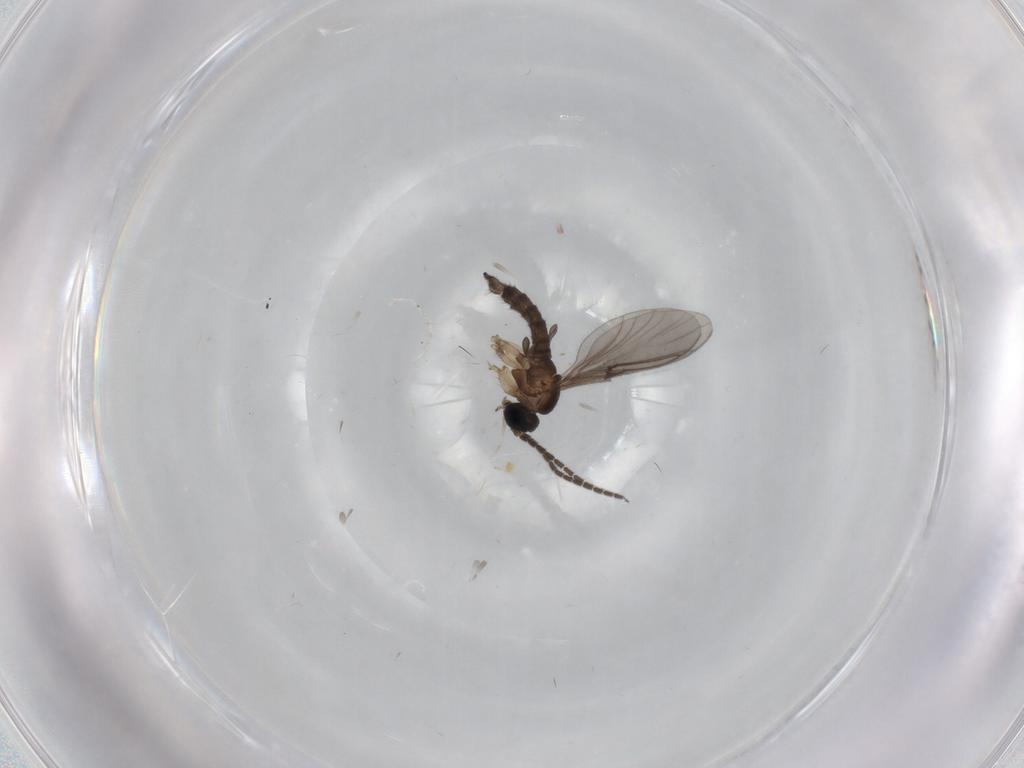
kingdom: Animalia
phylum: Arthropoda
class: Insecta
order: Diptera
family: Sciaridae
